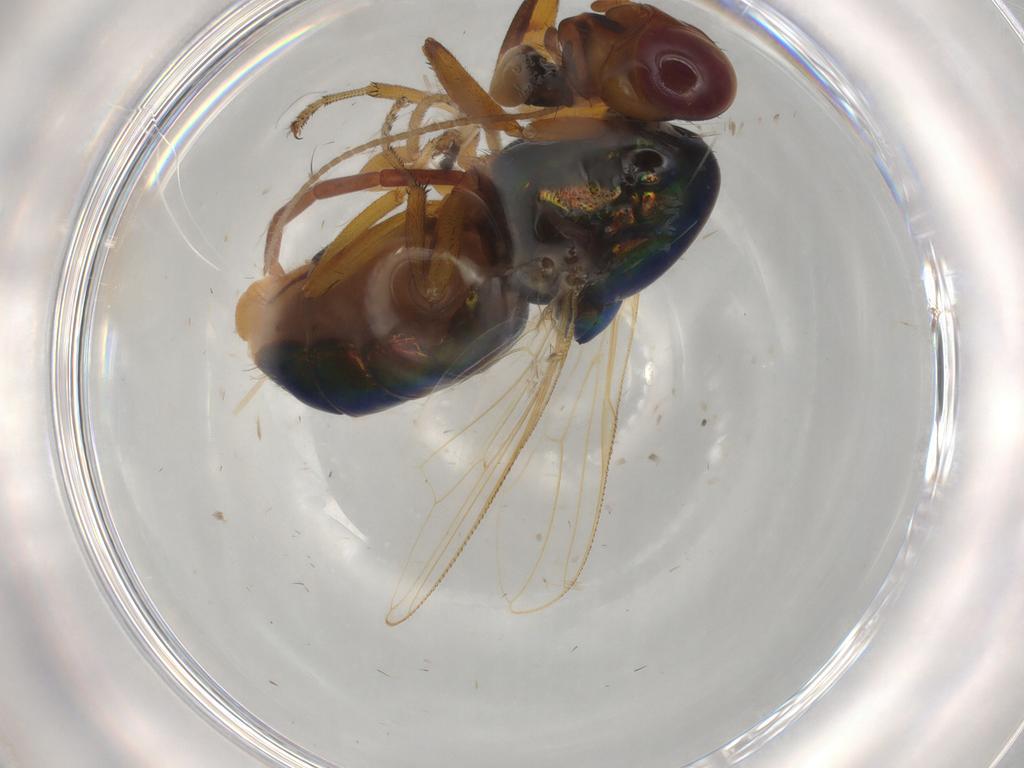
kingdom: Animalia
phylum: Arthropoda
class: Insecta
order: Diptera
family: Ulidiidae
